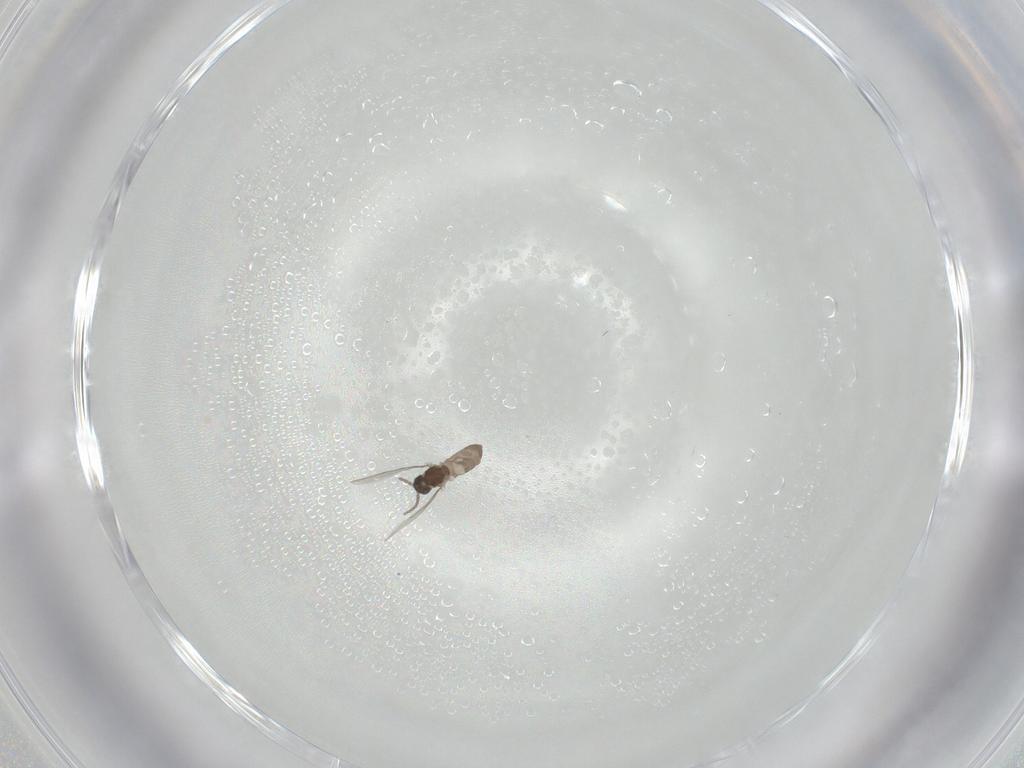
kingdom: Animalia
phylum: Arthropoda
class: Insecta
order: Diptera
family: Cecidomyiidae
